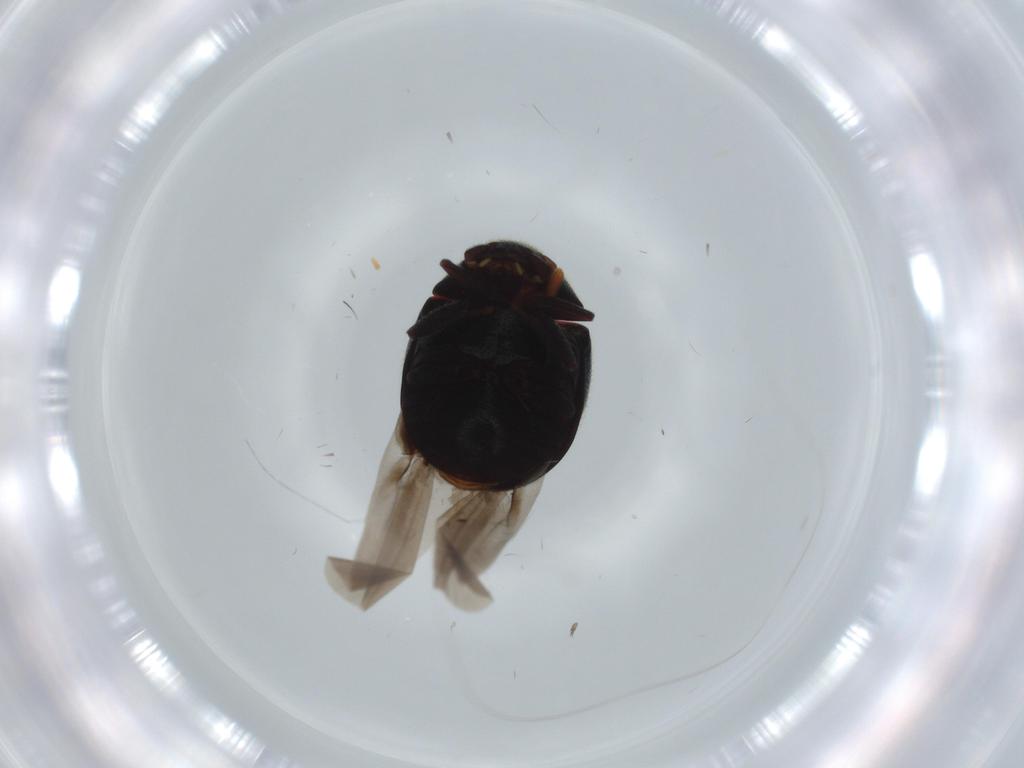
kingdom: Animalia
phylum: Arthropoda
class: Insecta
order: Coleoptera
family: Ptinidae
